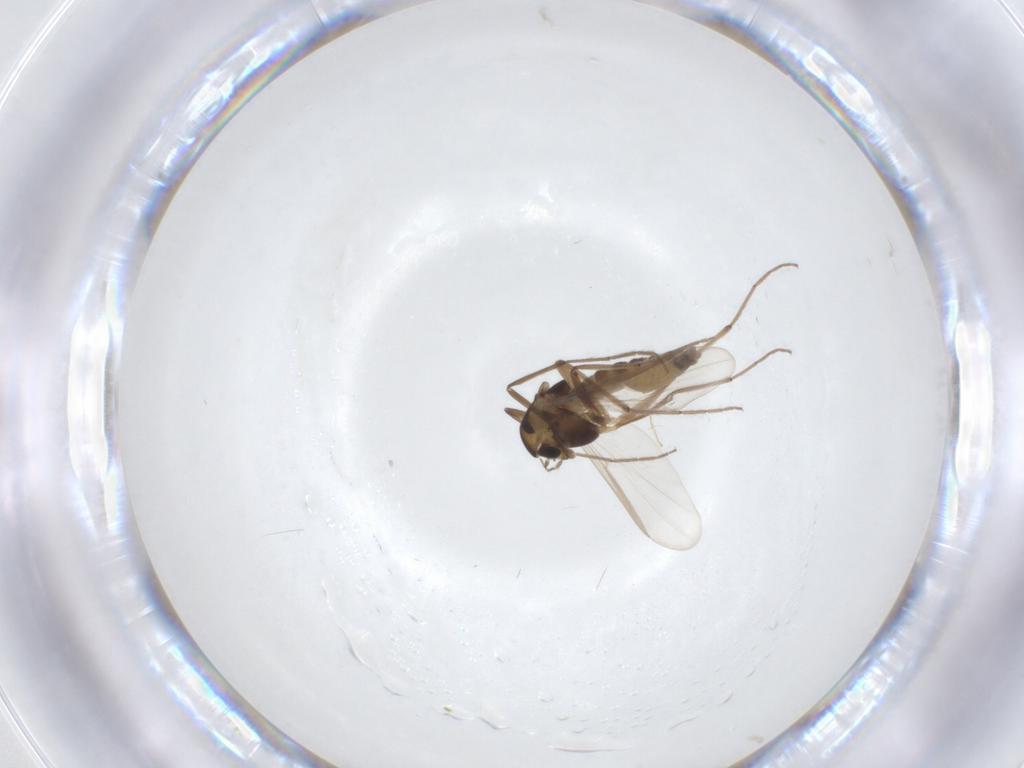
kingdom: Animalia
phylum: Arthropoda
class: Insecta
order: Diptera
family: Chironomidae
